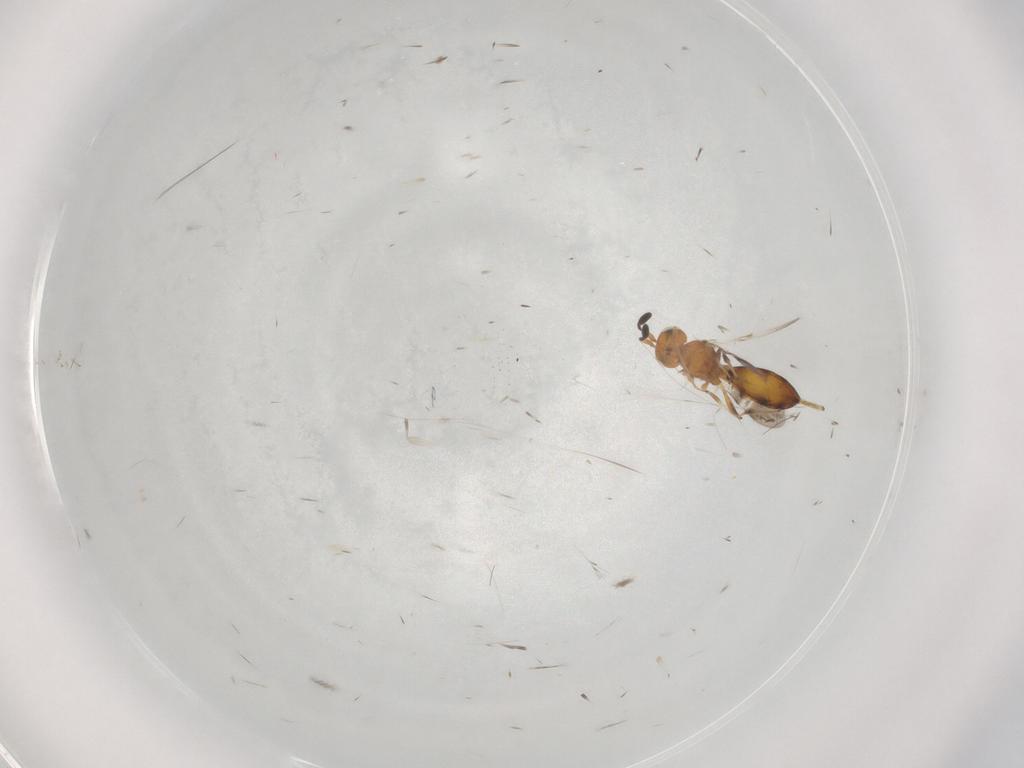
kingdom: Animalia
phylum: Arthropoda
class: Insecta
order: Hymenoptera
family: Scelionidae
